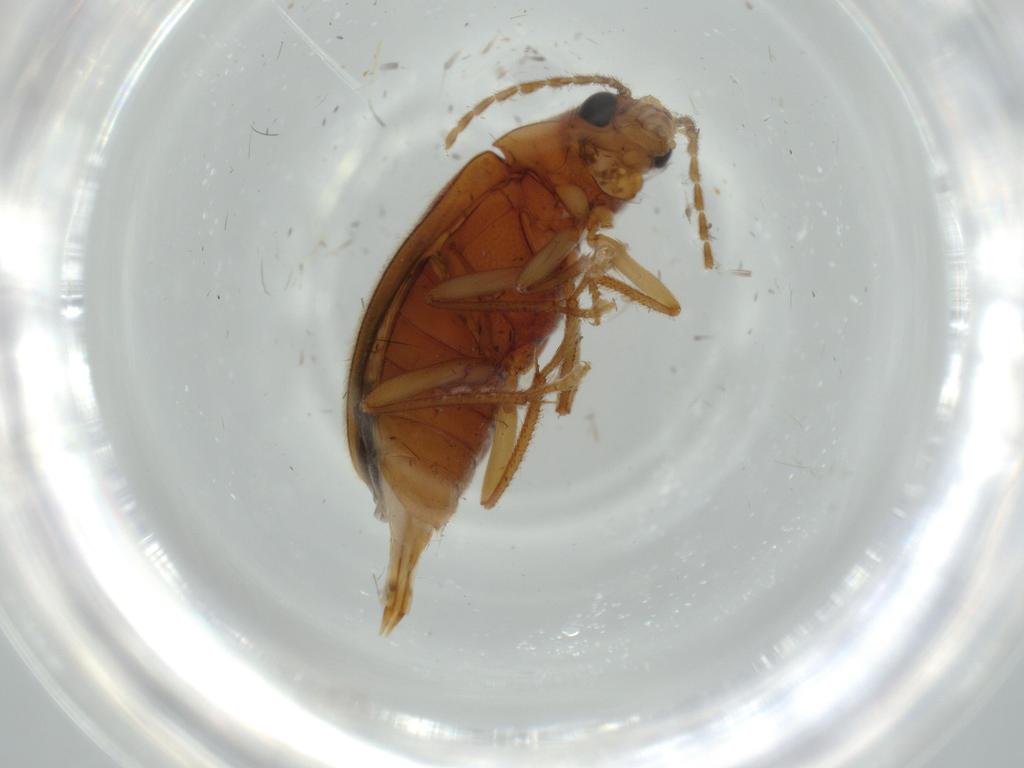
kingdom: Animalia
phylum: Arthropoda
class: Insecta
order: Coleoptera
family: Ptilodactylidae
